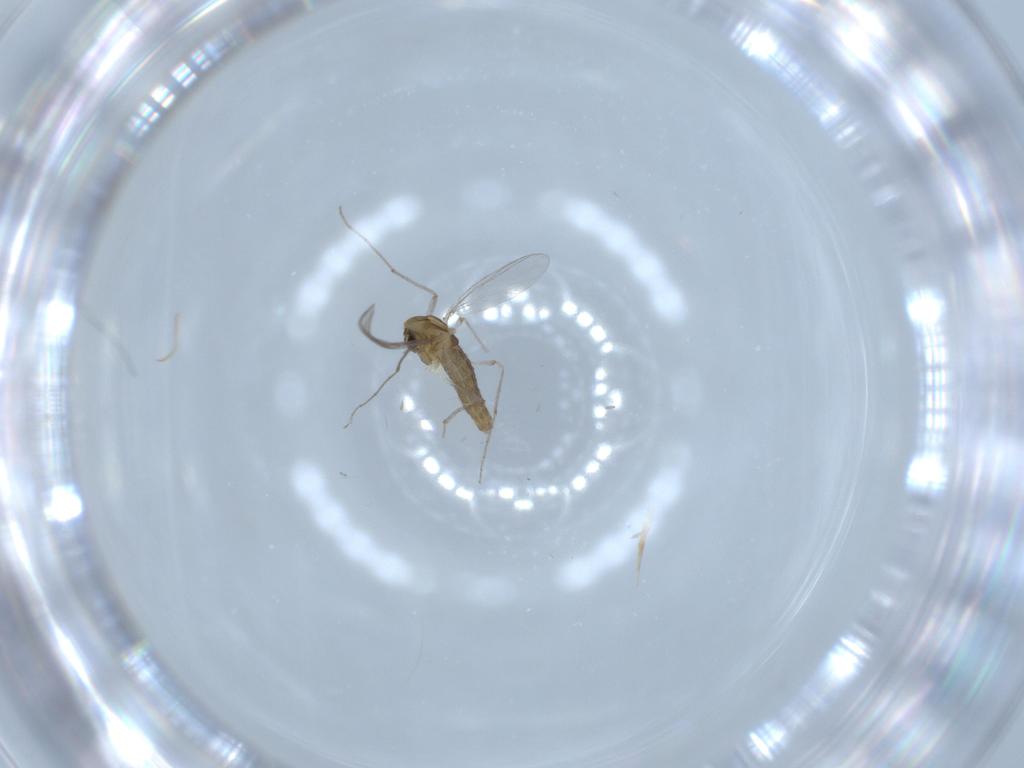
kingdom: Animalia
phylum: Arthropoda
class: Insecta
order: Diptera
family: Chironomidae
